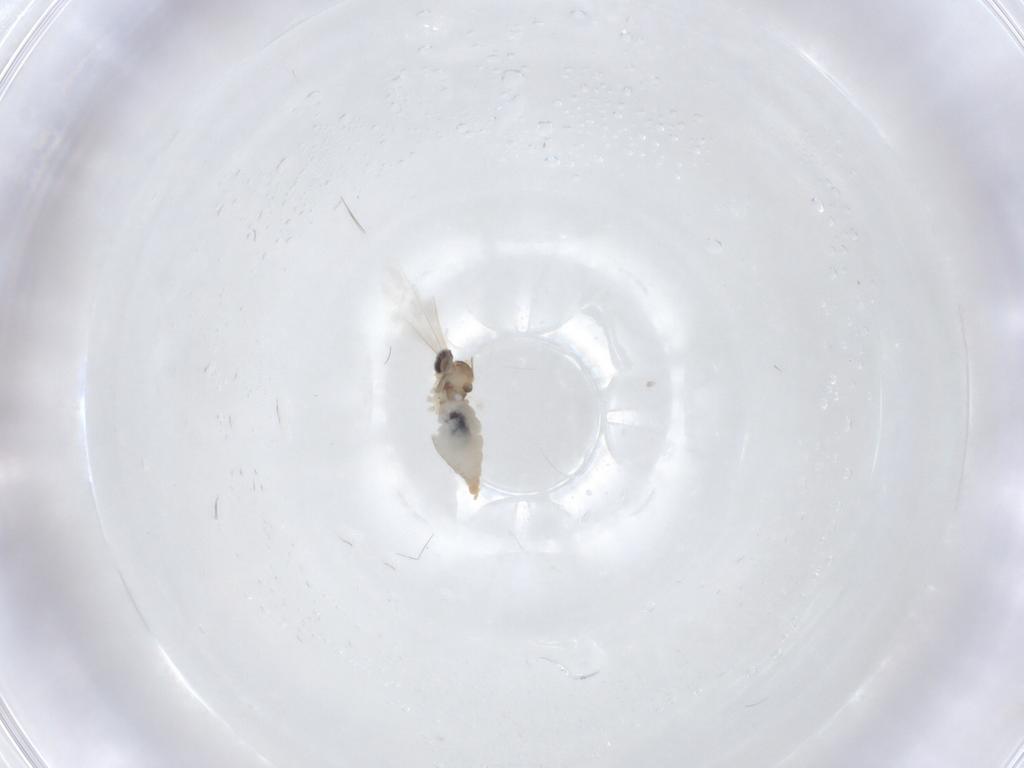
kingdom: Animalia
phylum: Arthropoda
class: Insecta
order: Diptera
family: Cecidomyiidae
